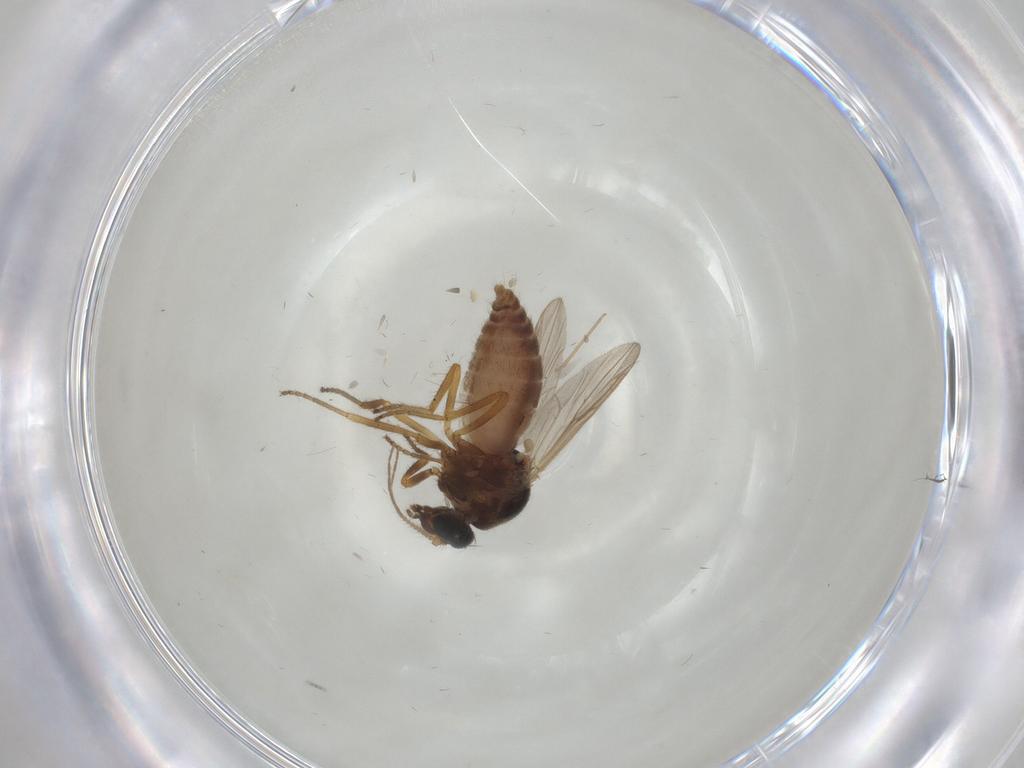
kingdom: Animalia
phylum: Arthropoda
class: Insecta
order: Diptera
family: Ceratopogonidae
